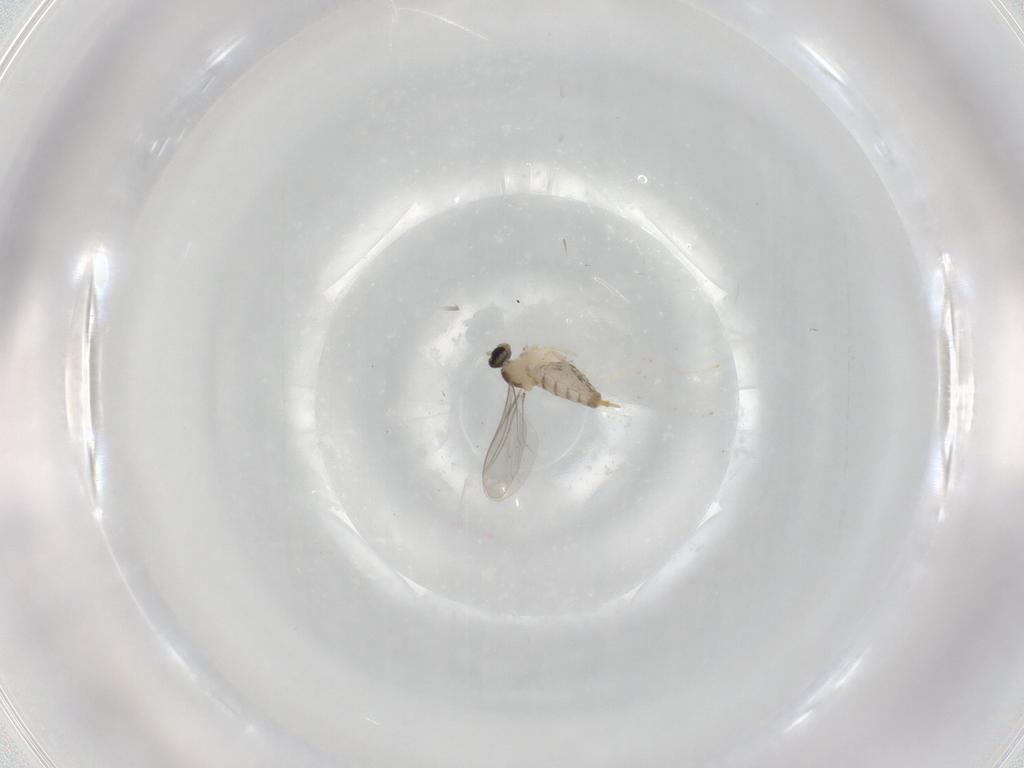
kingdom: Animalia
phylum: Arthropoda
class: Insecta
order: Diptera
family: Cecidomyiidae
